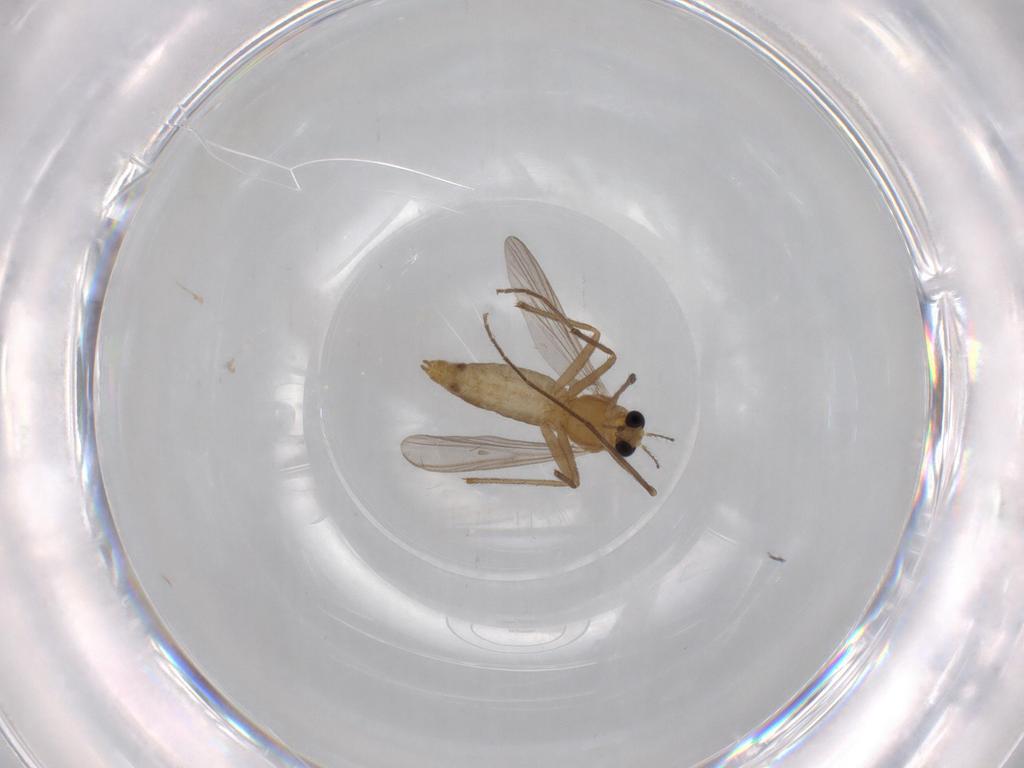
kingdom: Animalia
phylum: Arthropoda
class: Insecta
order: Diptera
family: Chironomidae
